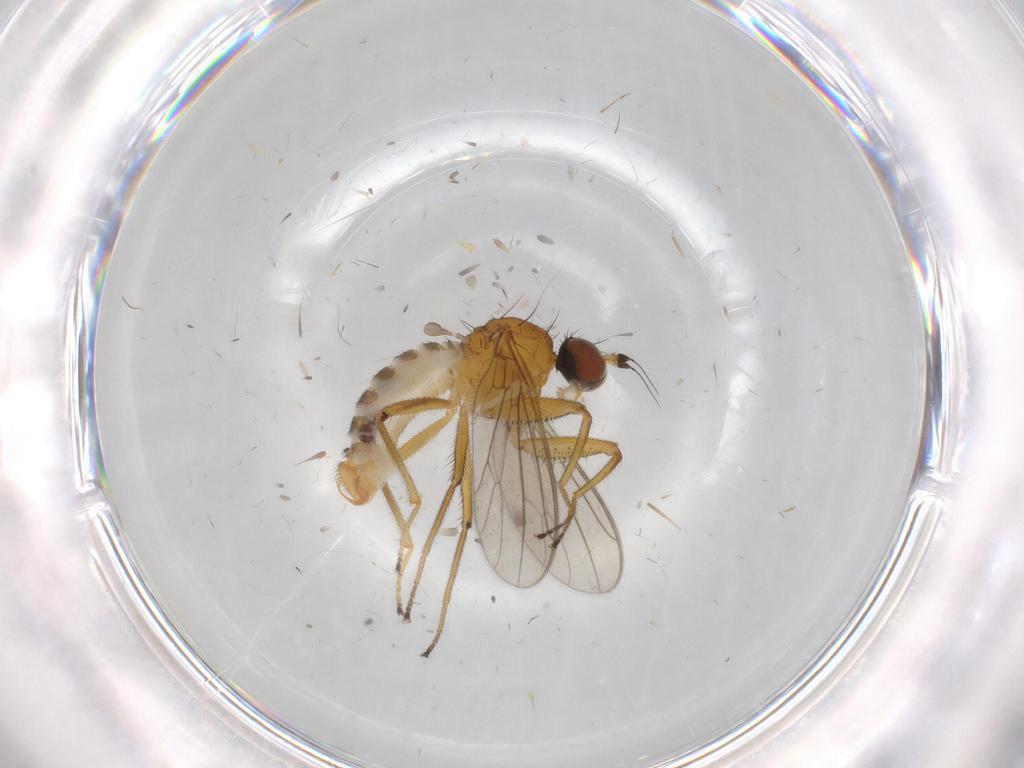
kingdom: Animalia
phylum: Arthropoda
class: Insecta
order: Diptera
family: Empididae
